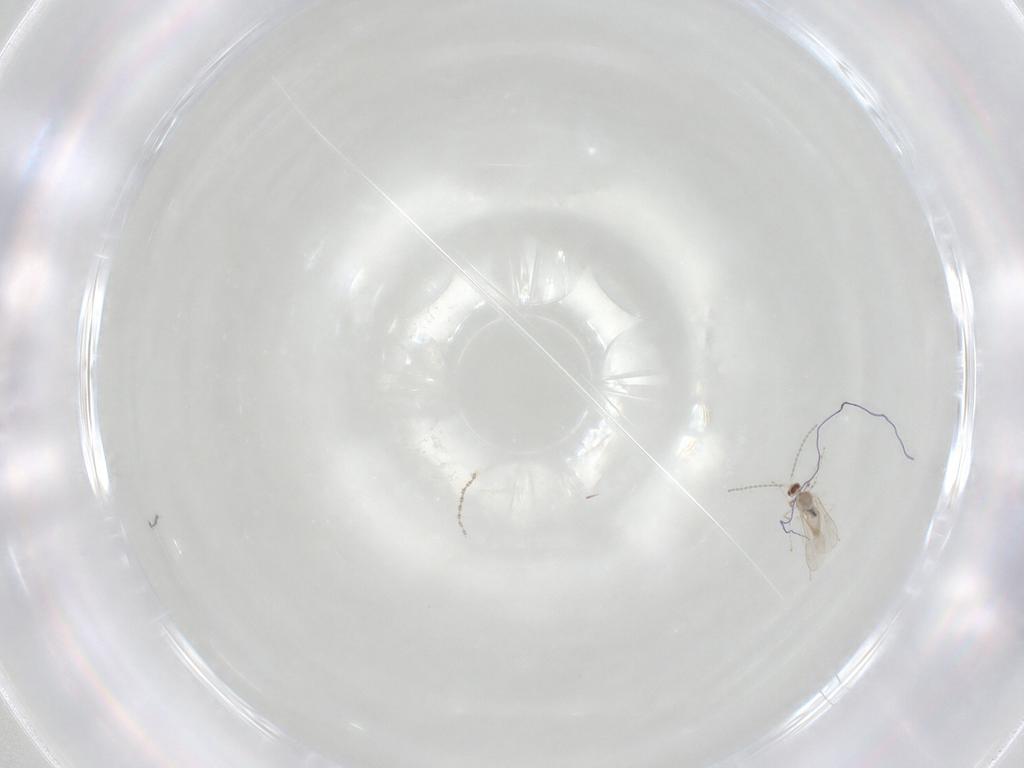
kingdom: Animalia
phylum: Arthropoda
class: Insecta
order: Diptera
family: Cecidomyiidae
